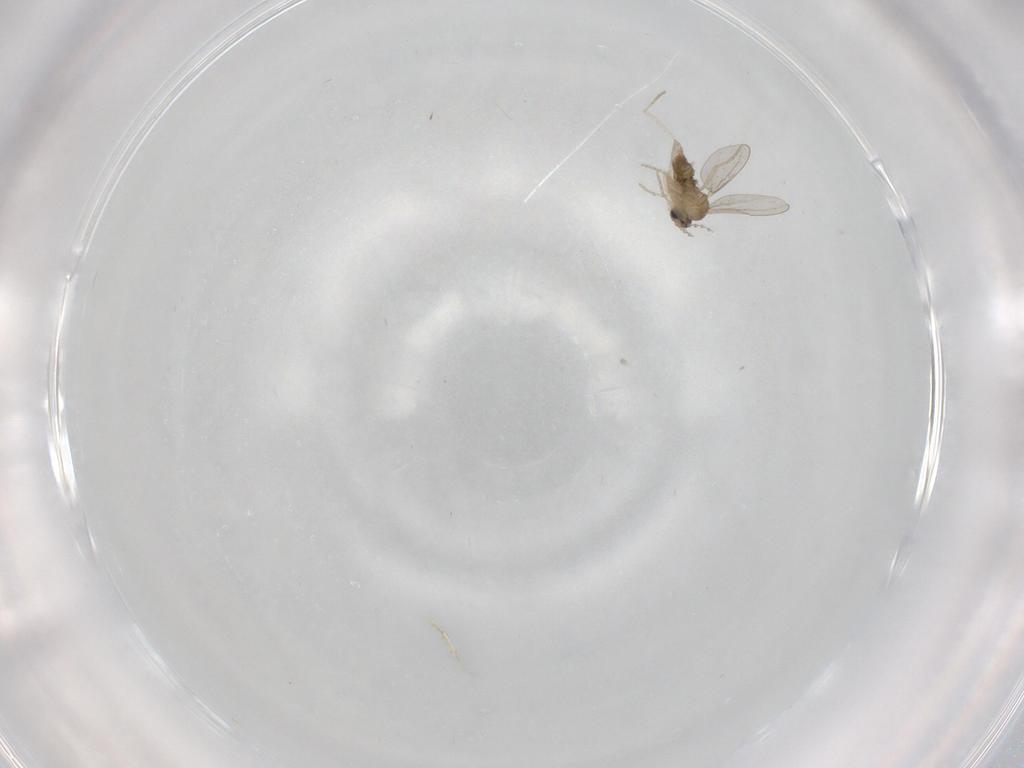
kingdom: Animalia
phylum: Arthropoda
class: Insecta
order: Diptera
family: Cecidomyiidae
